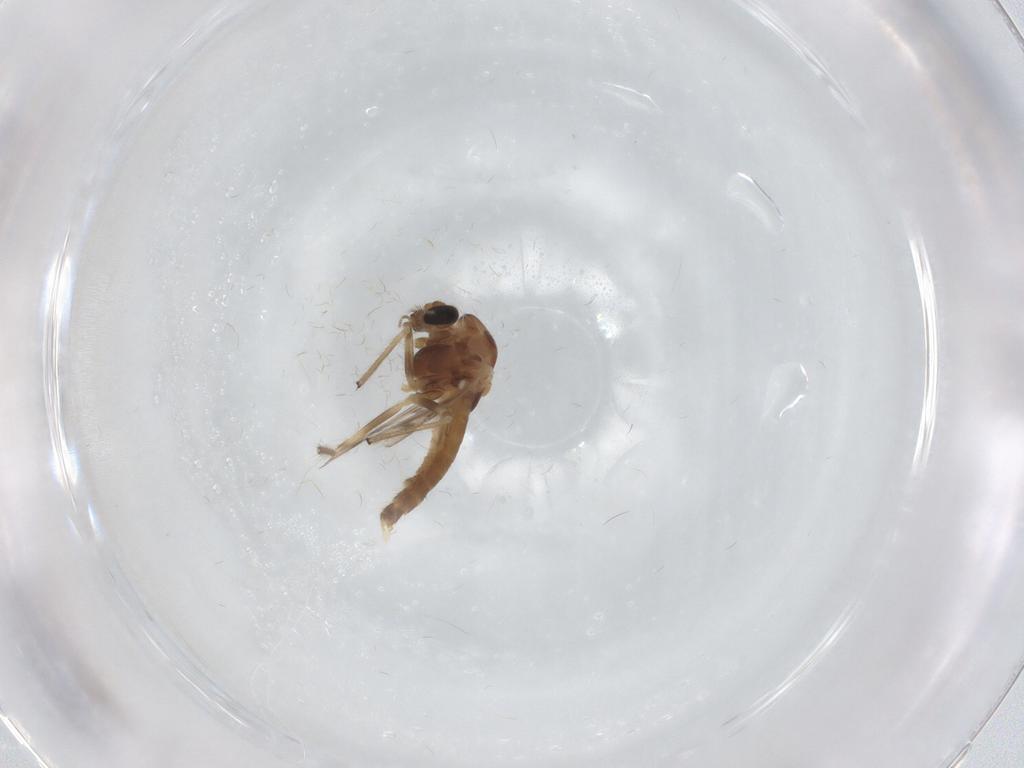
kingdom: Animalia
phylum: Arthropoda
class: Insecta
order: Diptera
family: Chironomidae
